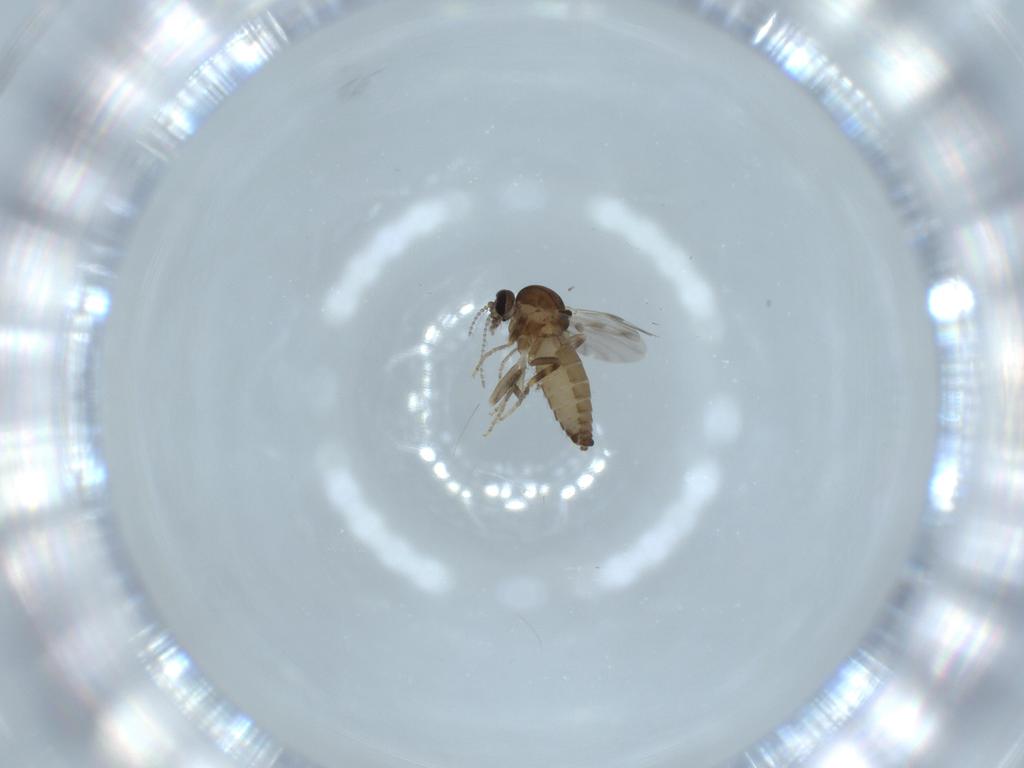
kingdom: Animalia
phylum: Arthropoda
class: Insecta
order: Diptera
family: Ceratopogonidae
